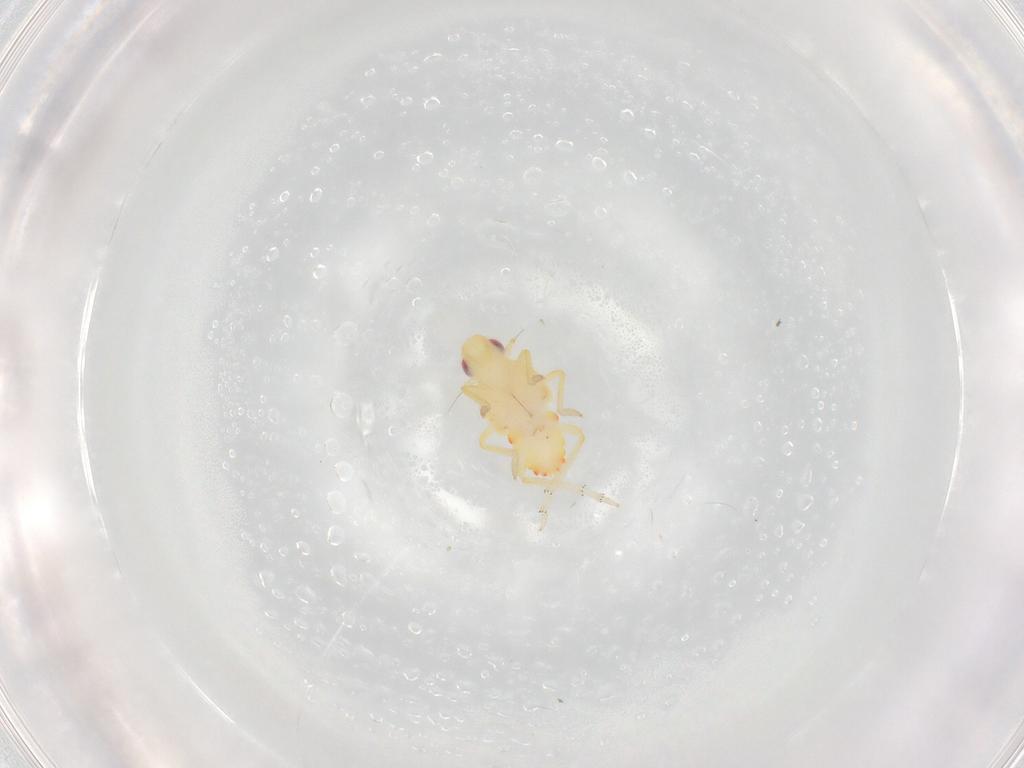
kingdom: Animalia
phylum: Arthropoda
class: Insecta
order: Hemiptera
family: Tropiduchidae
